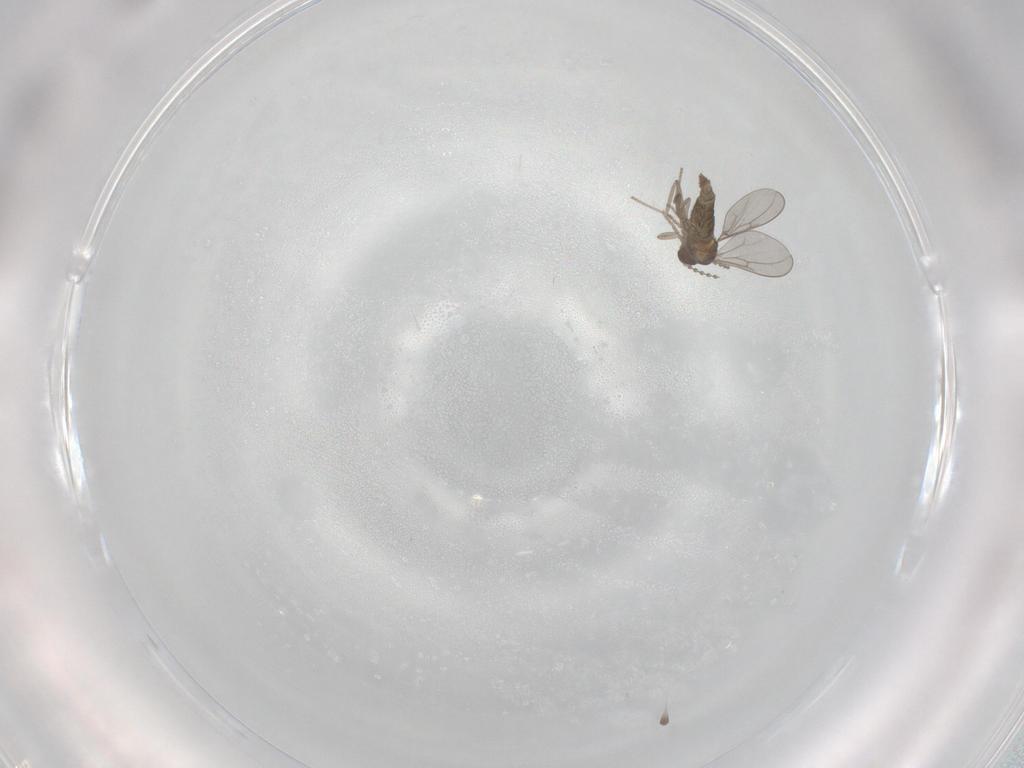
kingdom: Animalia
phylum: Arthropoda
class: Insecta
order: Diptera
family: Cecidomyiidae
